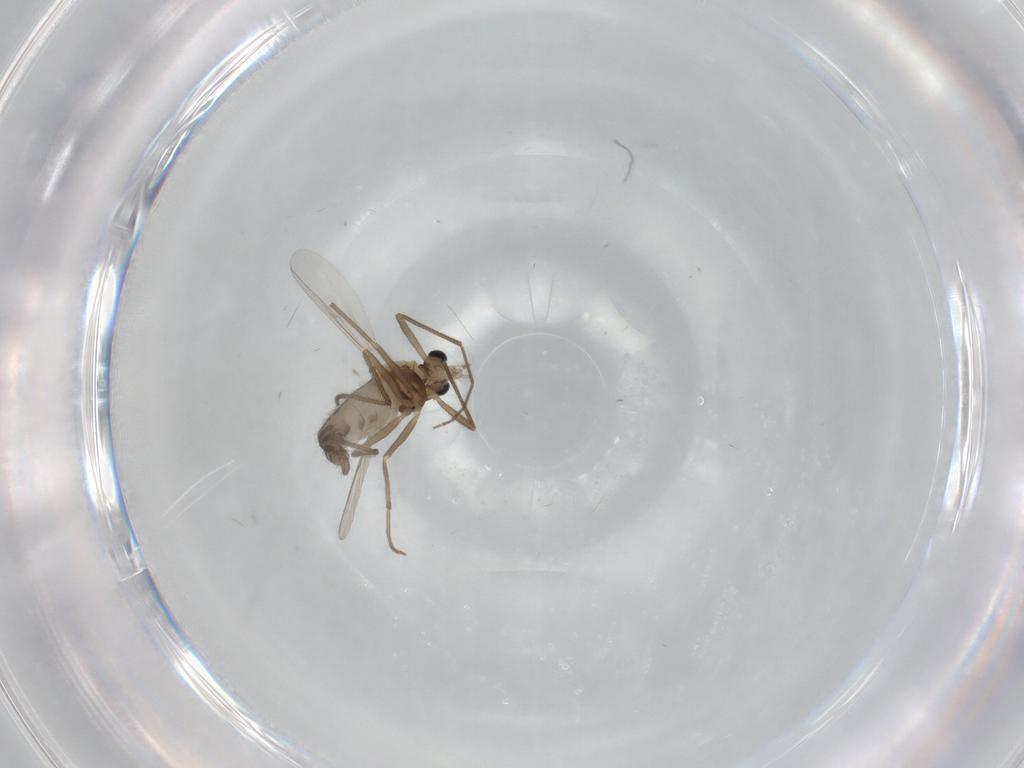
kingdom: Animalia
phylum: Arthropoda
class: Insecta
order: Diptera
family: Chironomidae
